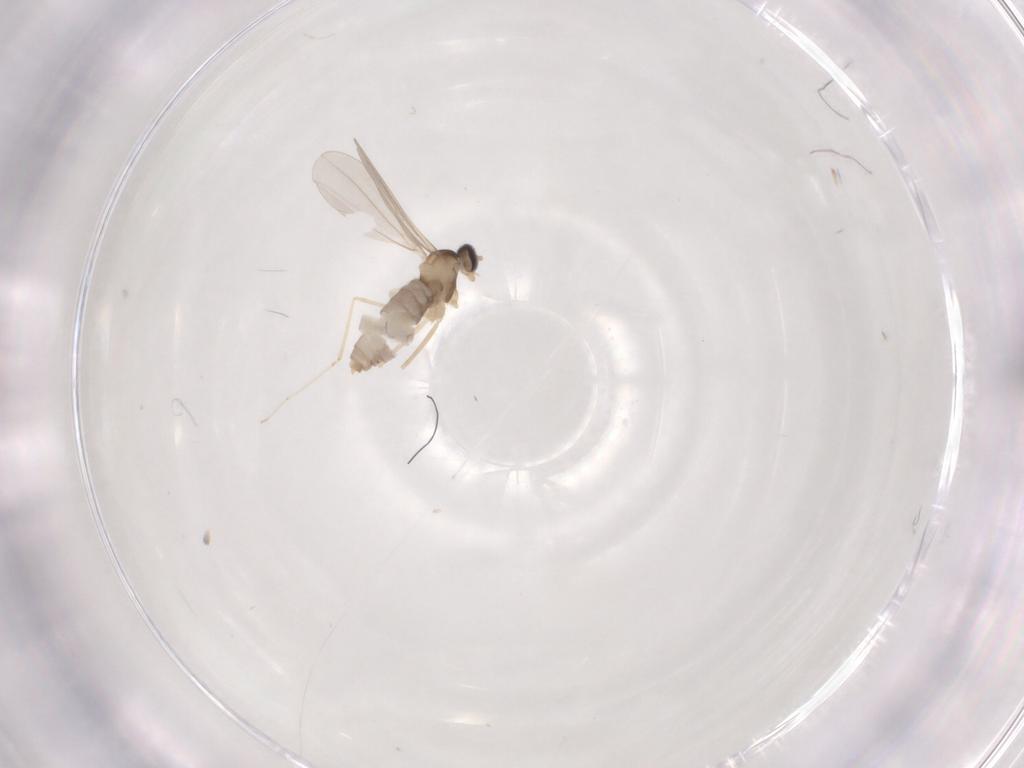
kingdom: Animalia
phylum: Arthropoda
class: Insecta
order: Diptera
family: Cecidomyiidae
